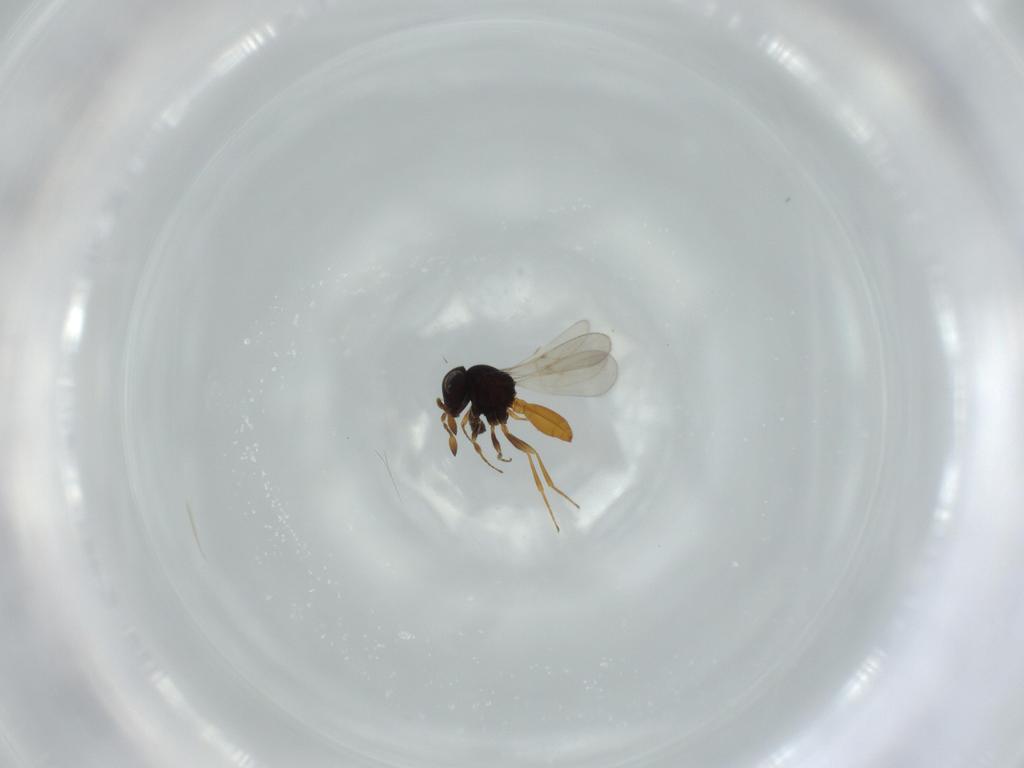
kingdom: Animalia
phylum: Arthropoda
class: Insecta
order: Hymenoptera
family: Scelionidae
